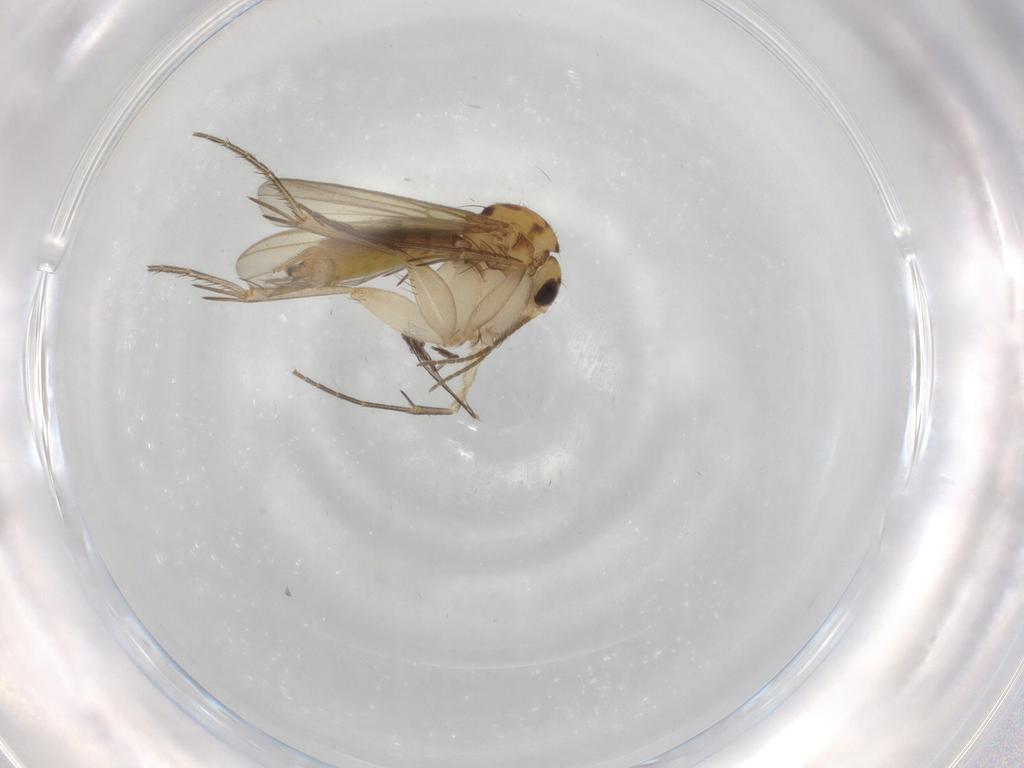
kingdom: Animalia
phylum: Arthropoda
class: Insecta
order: Diptera
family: Mycetophilidae
